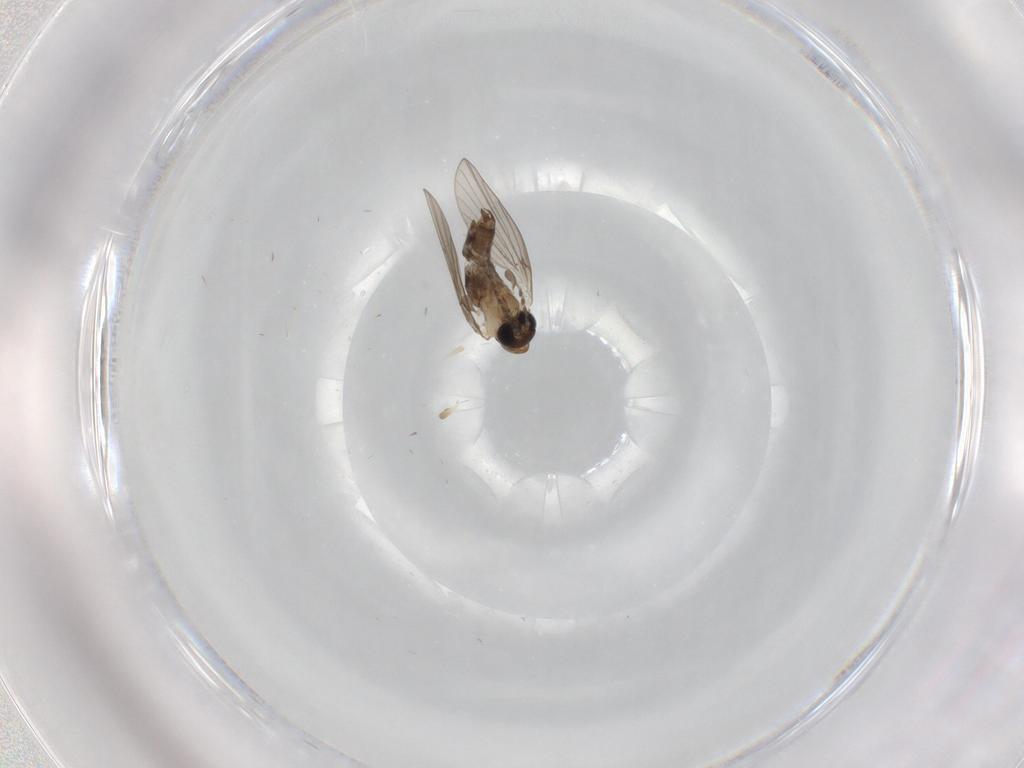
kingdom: Animalia
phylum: Arthropoda
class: Insecta
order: Diptera
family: Psychodidae
